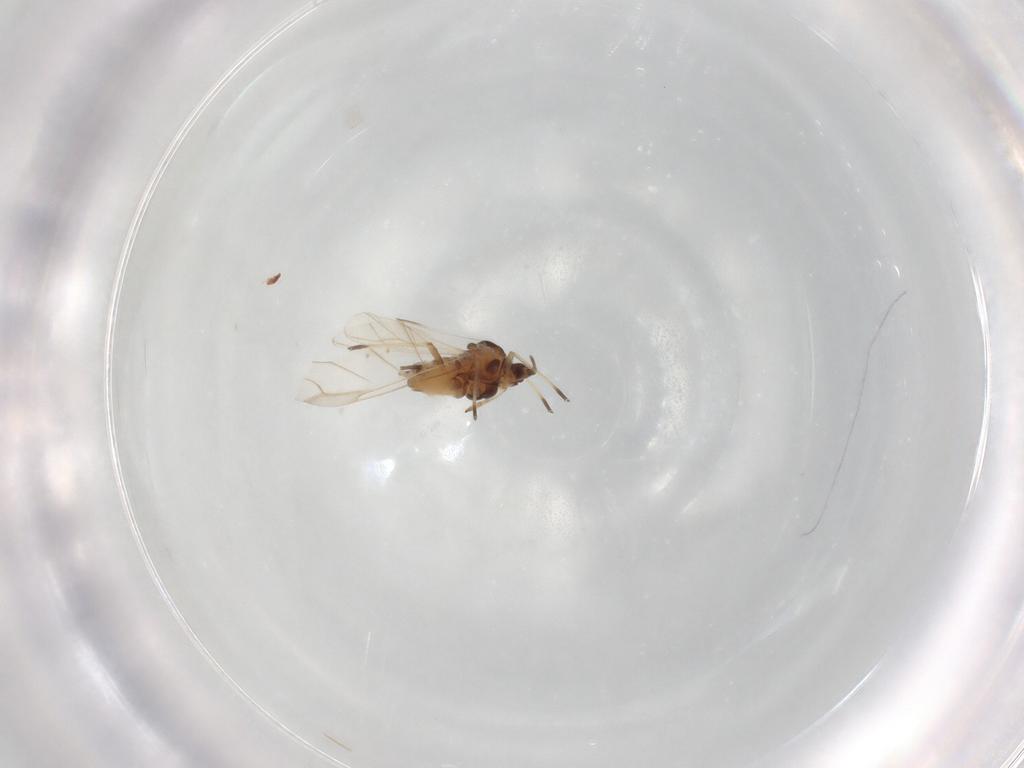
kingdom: Animalia
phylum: Arthropoda
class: Insecta
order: Hemiptera
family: Aphididae
